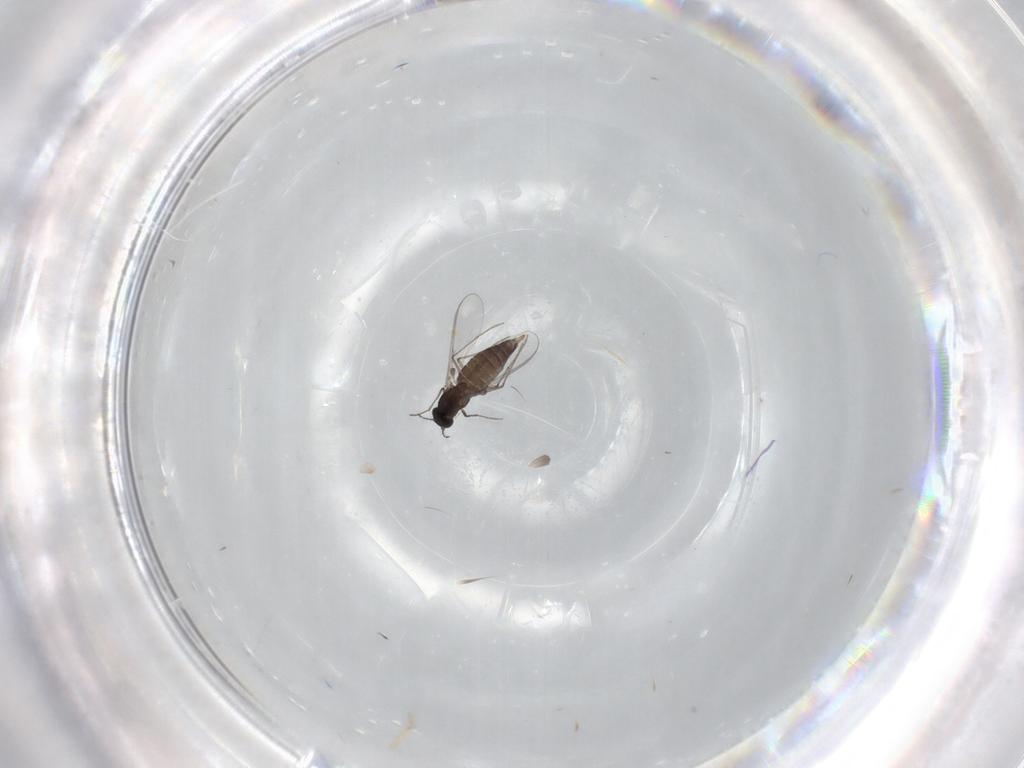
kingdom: Animalia
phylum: Arthropoda
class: Insecta
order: Diptera
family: Chironomidae
